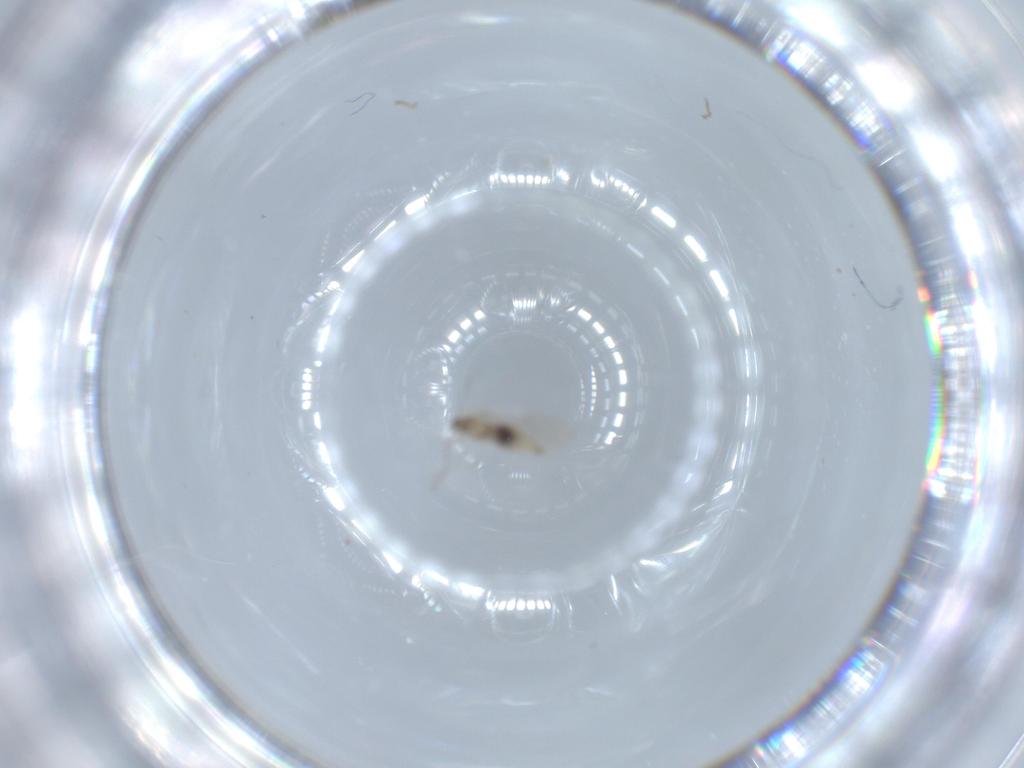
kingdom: Animalia
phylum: Arthropoda
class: Insecta
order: Diptera
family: Cecidomyiidae
